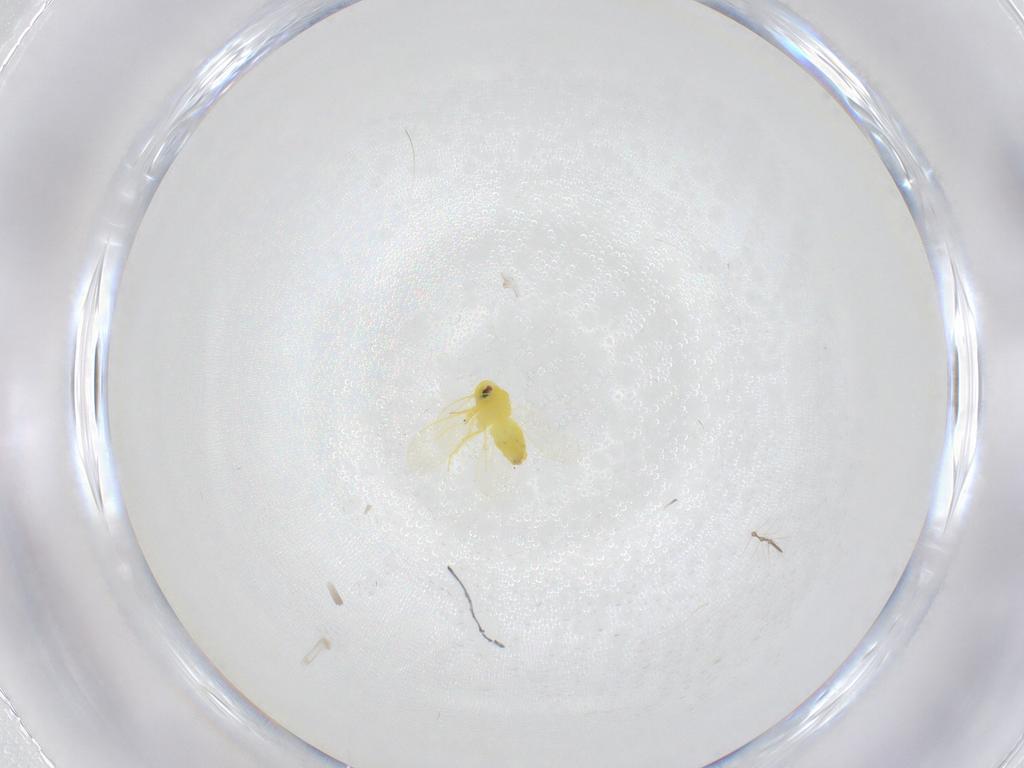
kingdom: Animalia
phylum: Arthropoda
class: Insecta
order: Hemiptera
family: Aleyrodidae
